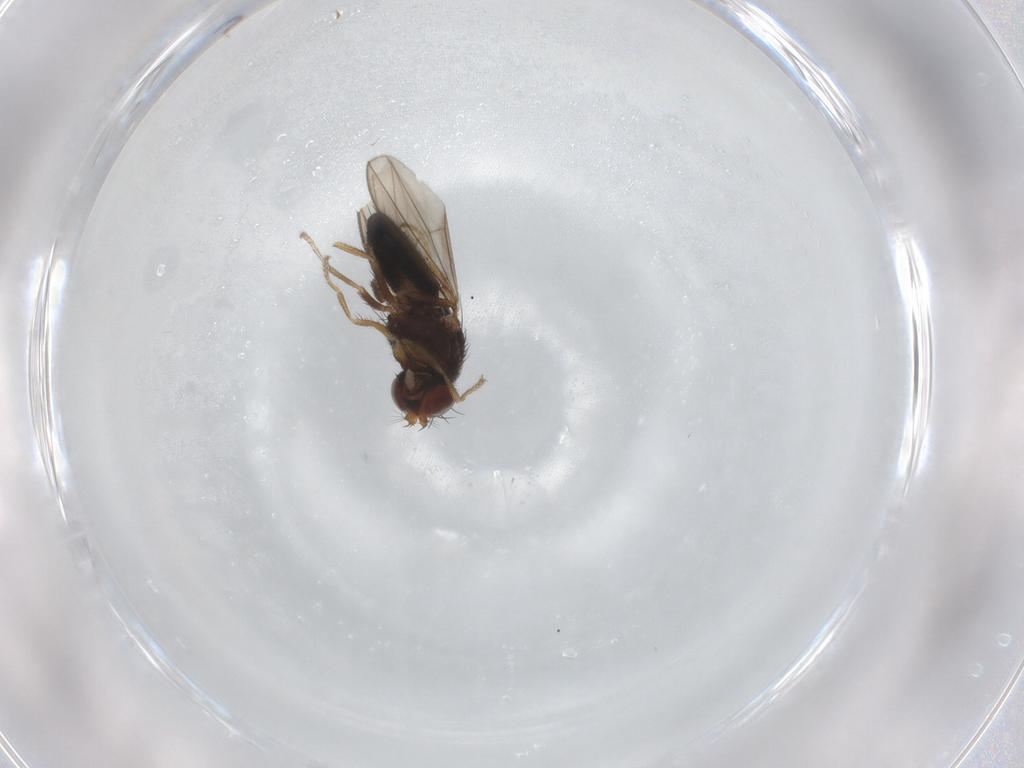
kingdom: Animalia
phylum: Arthropoda
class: Insecta
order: Diptera
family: Ephydridae
